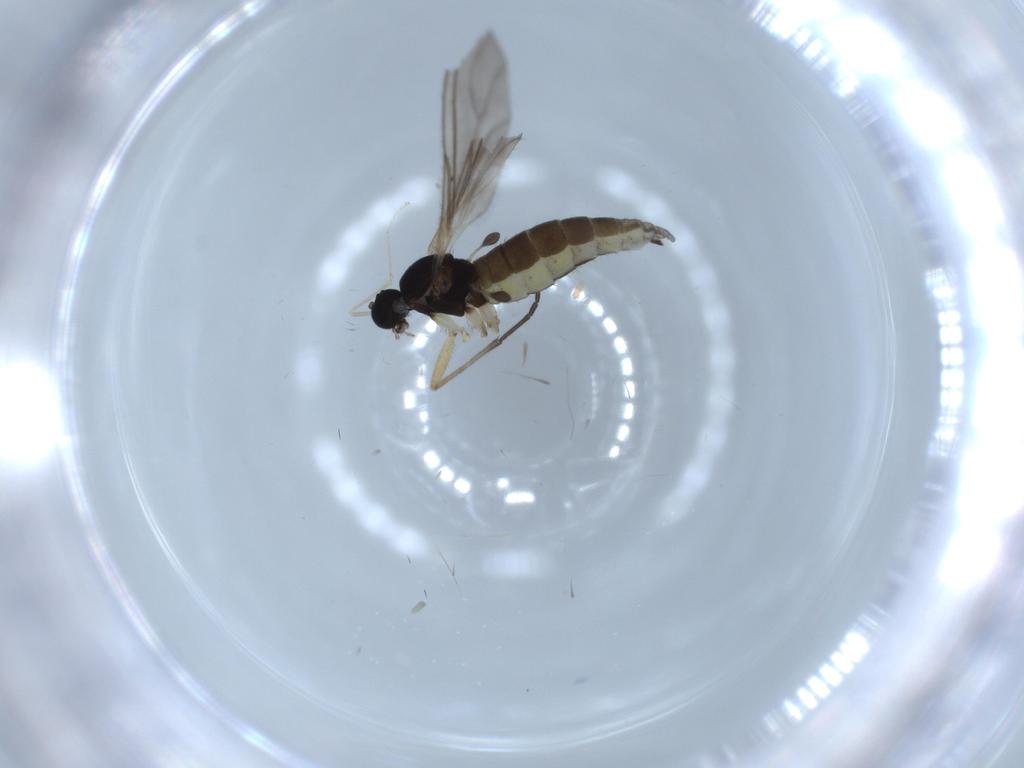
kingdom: Animalia
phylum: Arthropoda
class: Insecta
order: Diptera
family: Sciaridae
